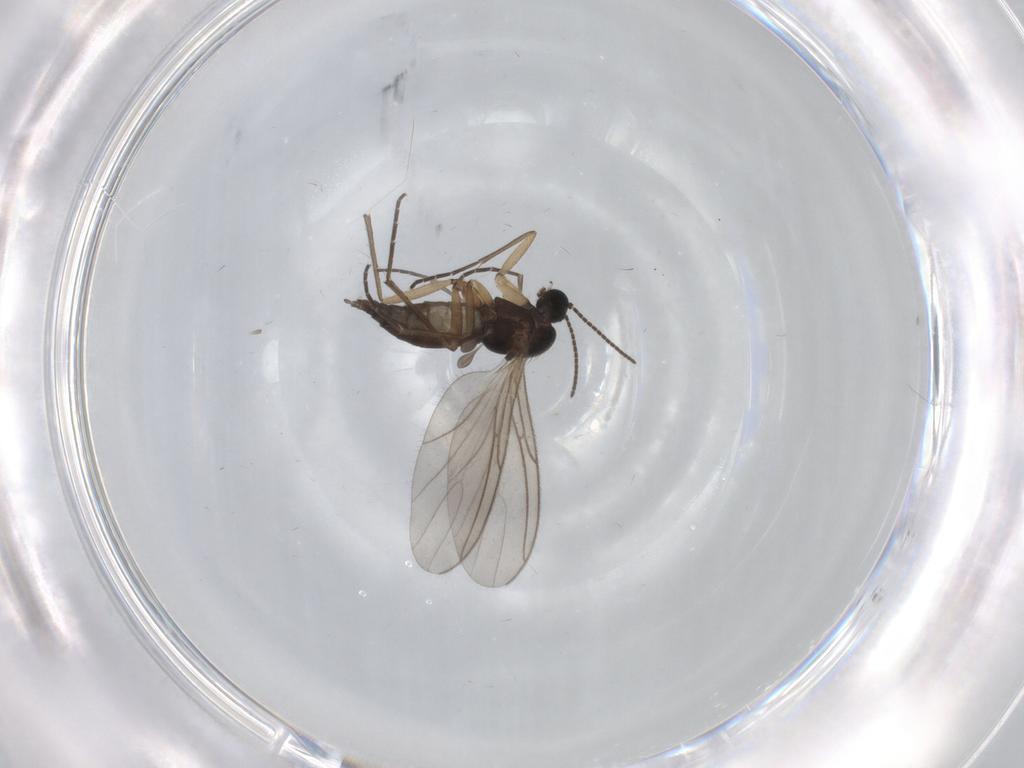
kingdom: Animalia
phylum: Arthropoda
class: Insecta
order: Diptera
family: Sciaridae
